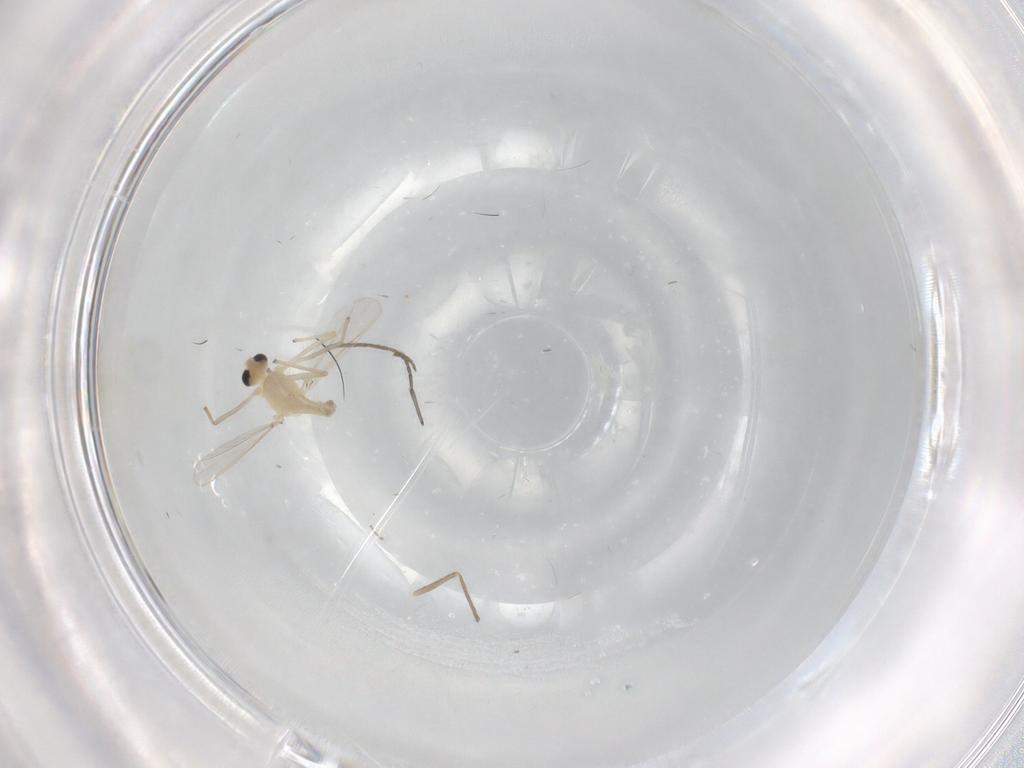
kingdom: Animalia
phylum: Arthropoda
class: Insecta
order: Diptera
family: Chironomidae
